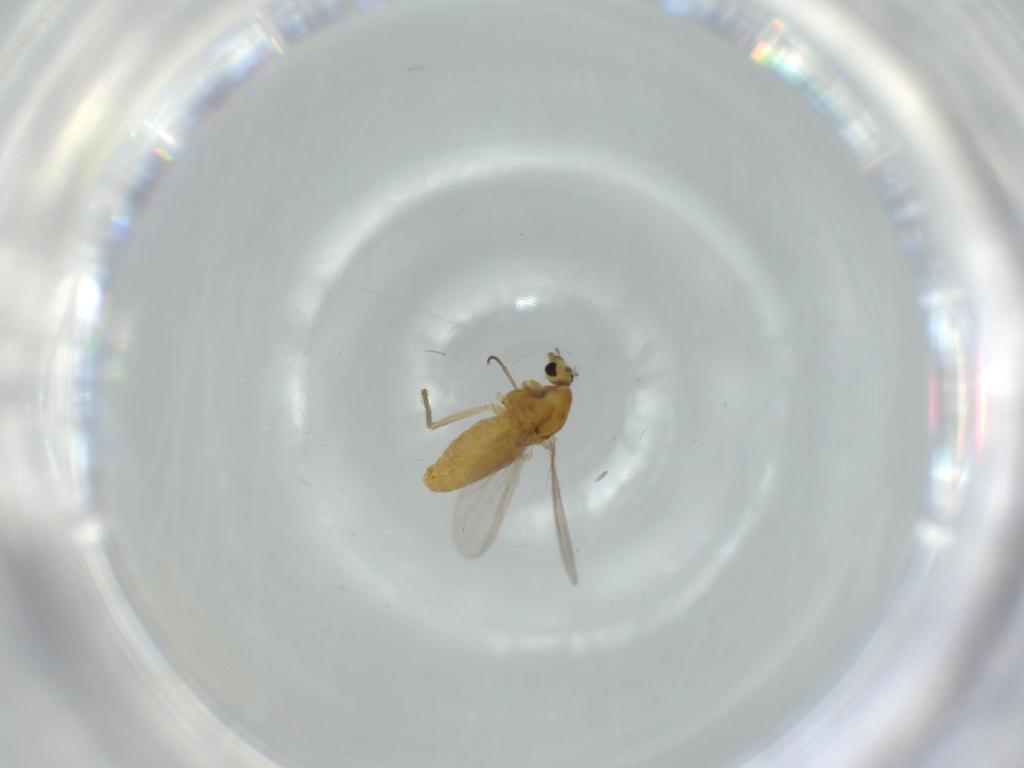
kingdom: Animalia
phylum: Arthropoda
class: Insecta
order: Diptera
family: Chironomidae
